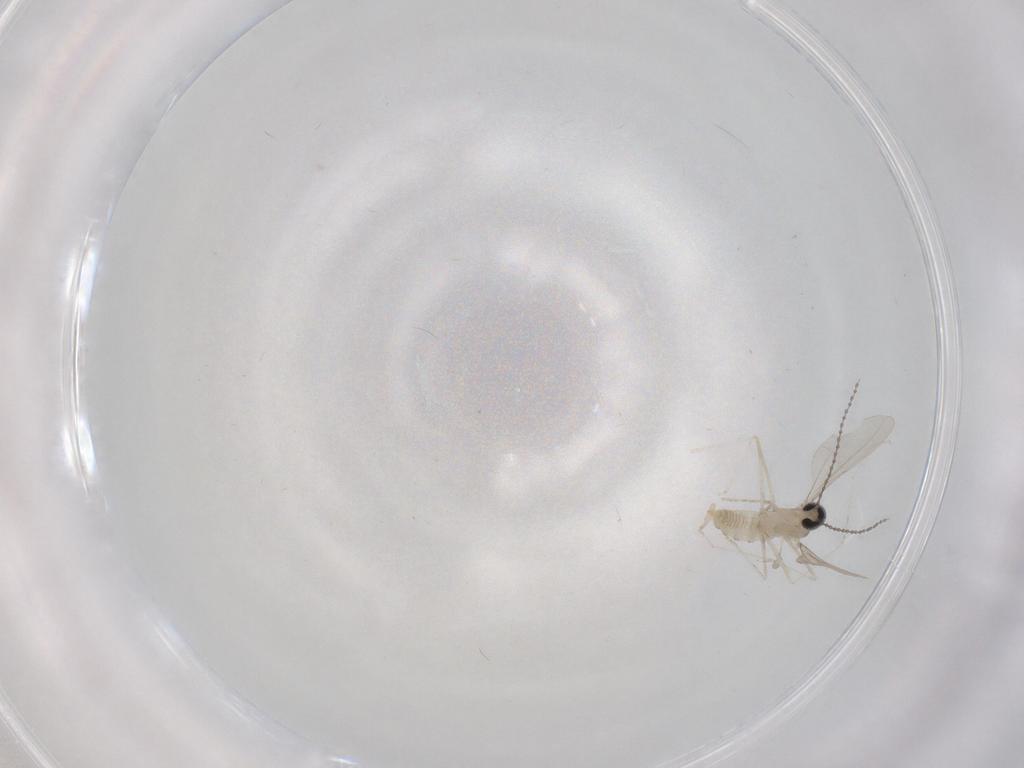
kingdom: Animalia
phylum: Arthropoda
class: Insecta
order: Diptera
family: Cecidomyiidae
